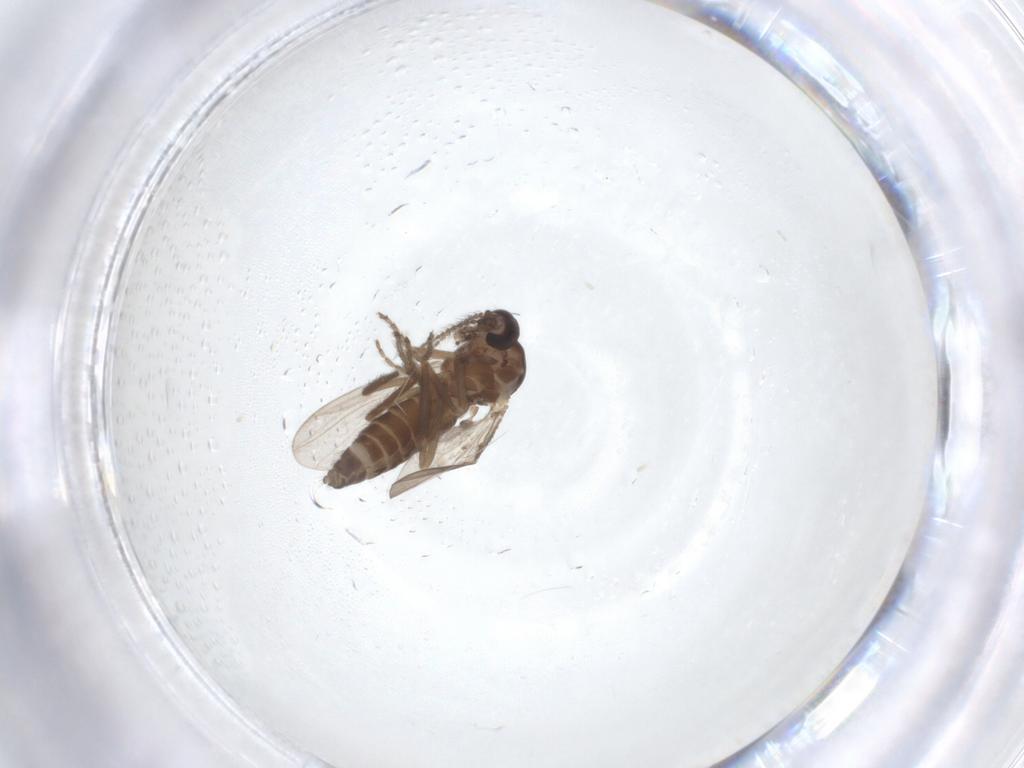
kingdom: Animalia
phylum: Arthropoda
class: Insecta
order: Diptera
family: Ceratopogonidae
